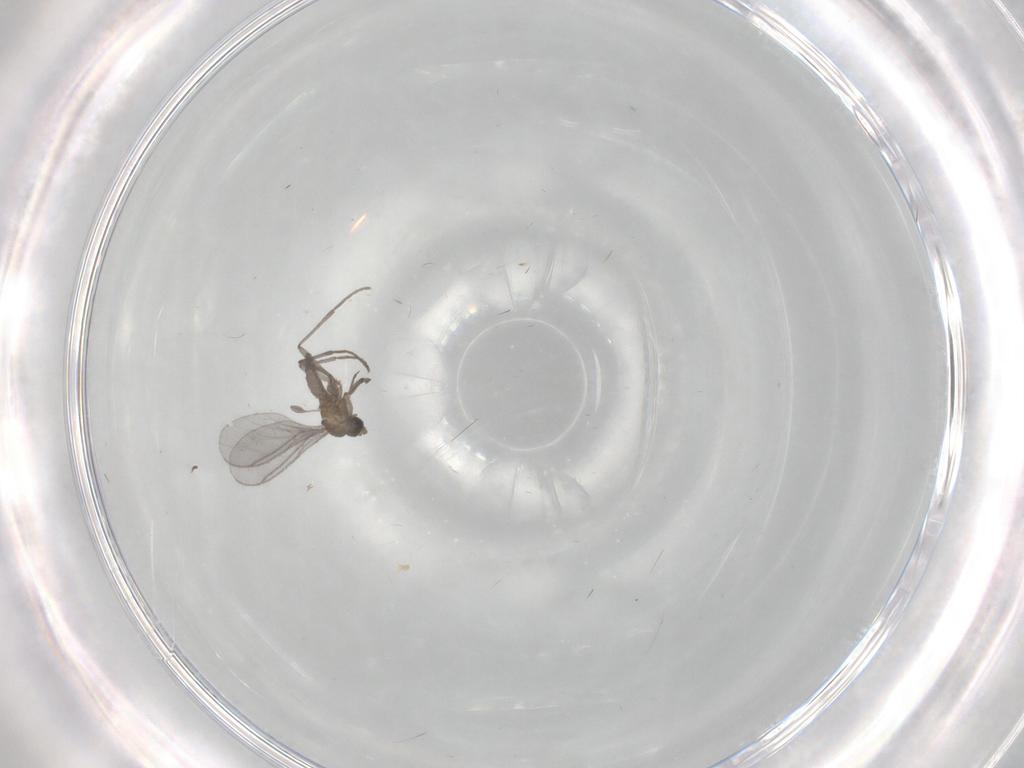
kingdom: Animalia
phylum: Arthropoda
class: Insecta
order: Diptera
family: Sciaridae
